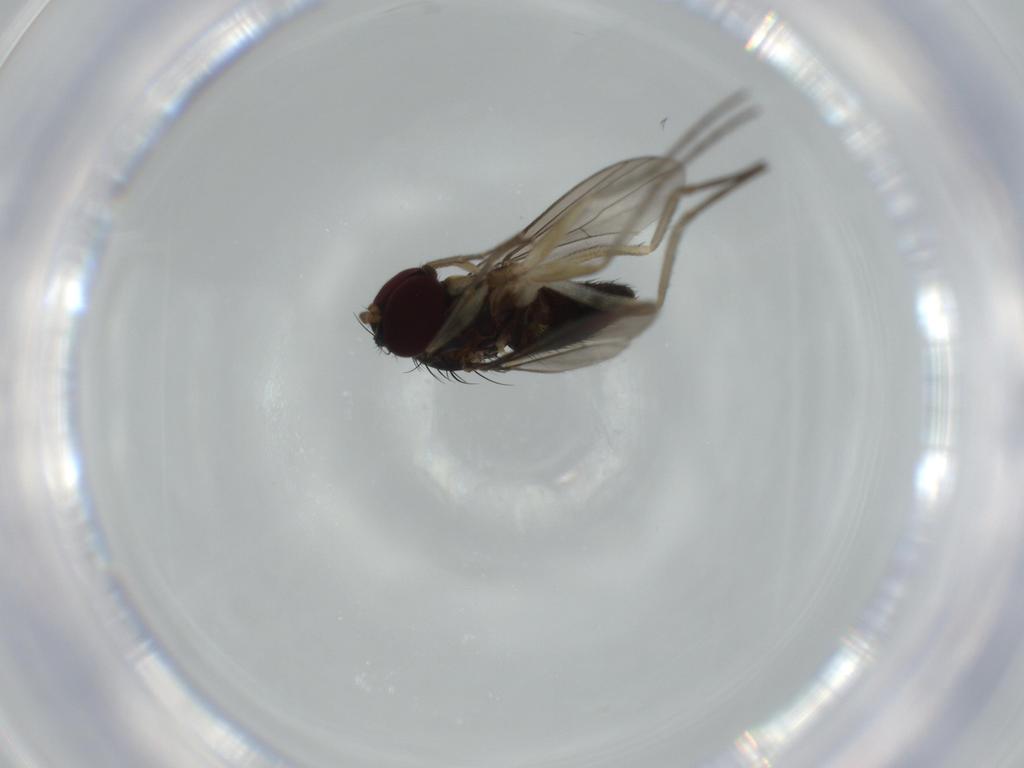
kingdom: Animalia
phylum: Arthropoda
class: Insecta
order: Diptera
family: Dolichopodidae
